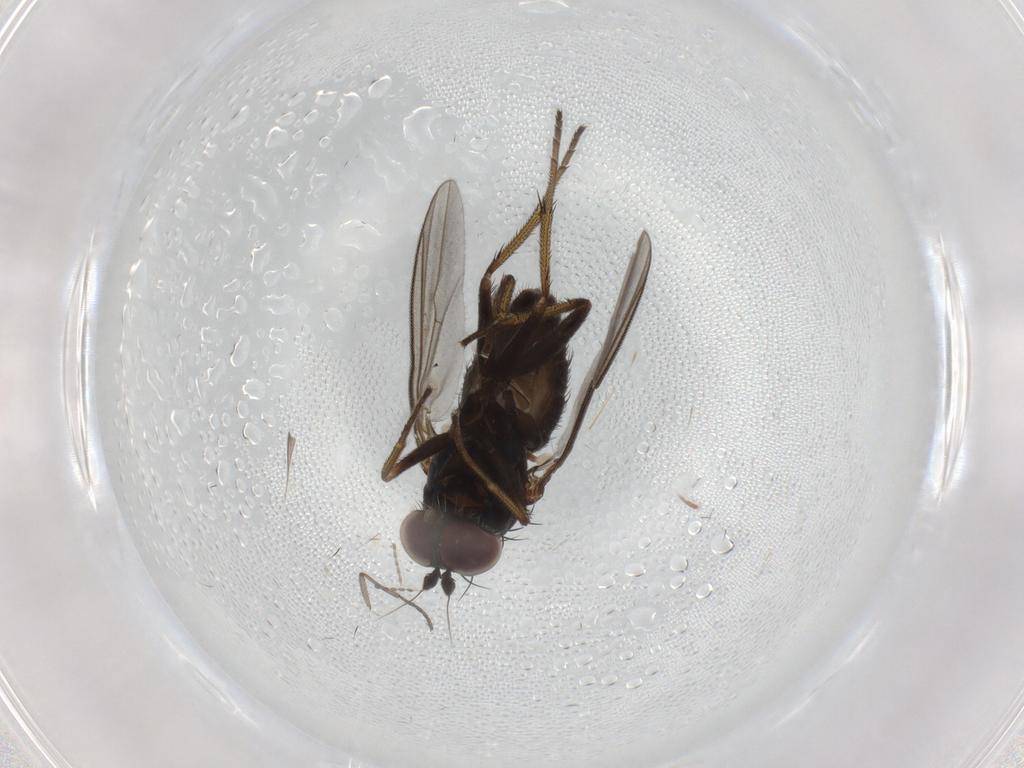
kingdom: Animalia
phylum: Arthropoda
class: Insecta
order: Diptera
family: Dolichopodidae
